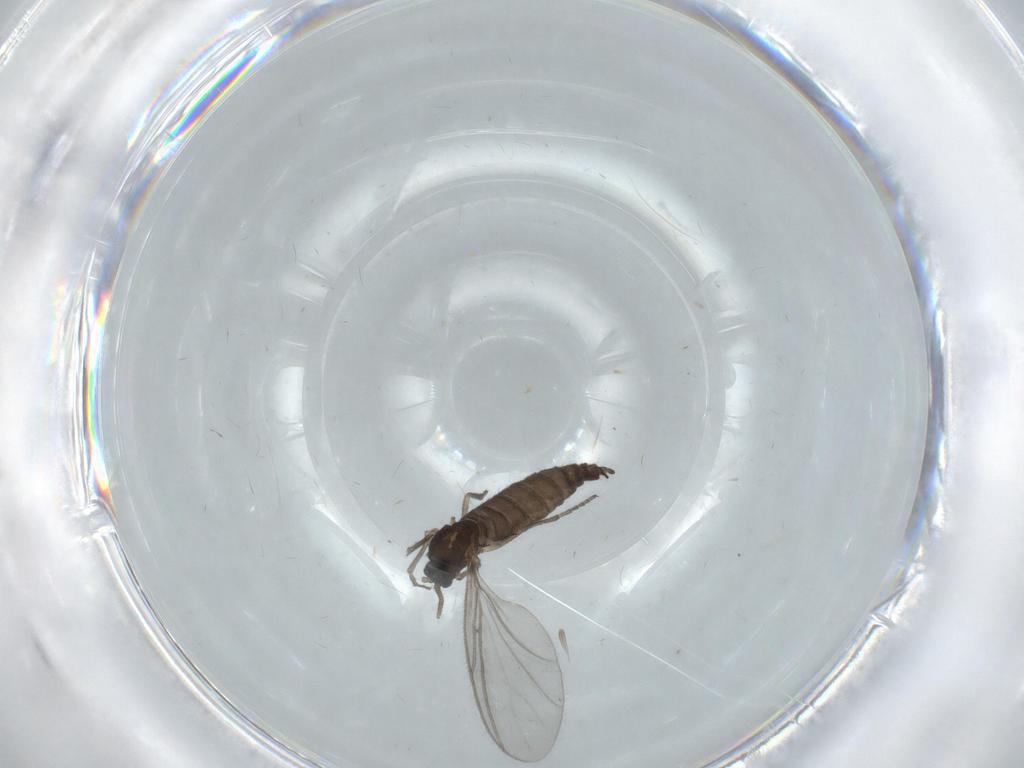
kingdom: Animalia
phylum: Arthropoda
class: Insecta
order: Diptera
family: Sciaridae
